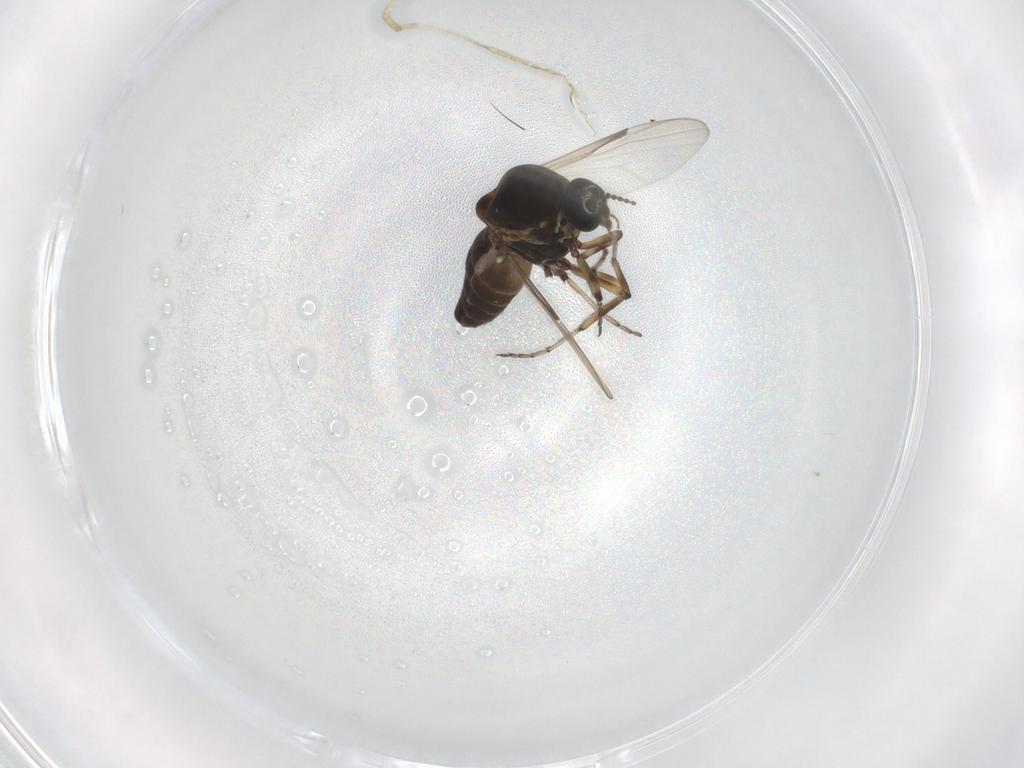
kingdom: Animalia
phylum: Arthropoda
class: Insecta
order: Diptera
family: Ceratopogonidae
